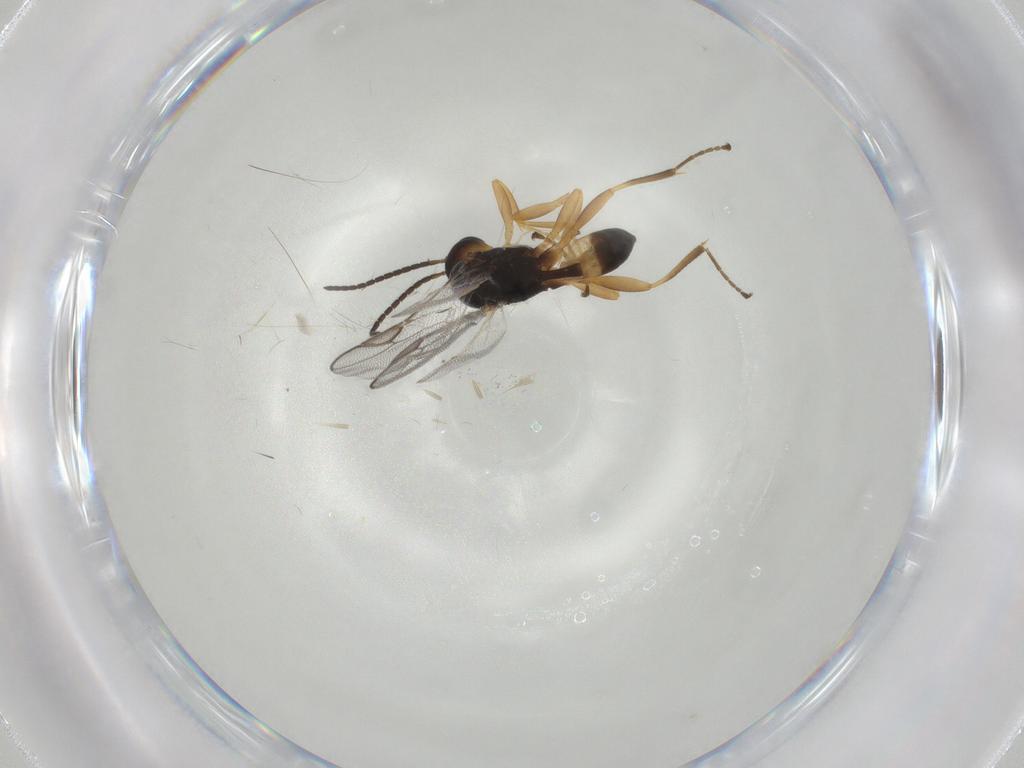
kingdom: Animalia
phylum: Arthropoda
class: Insecta
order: Hymenoptera
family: Braconidae
